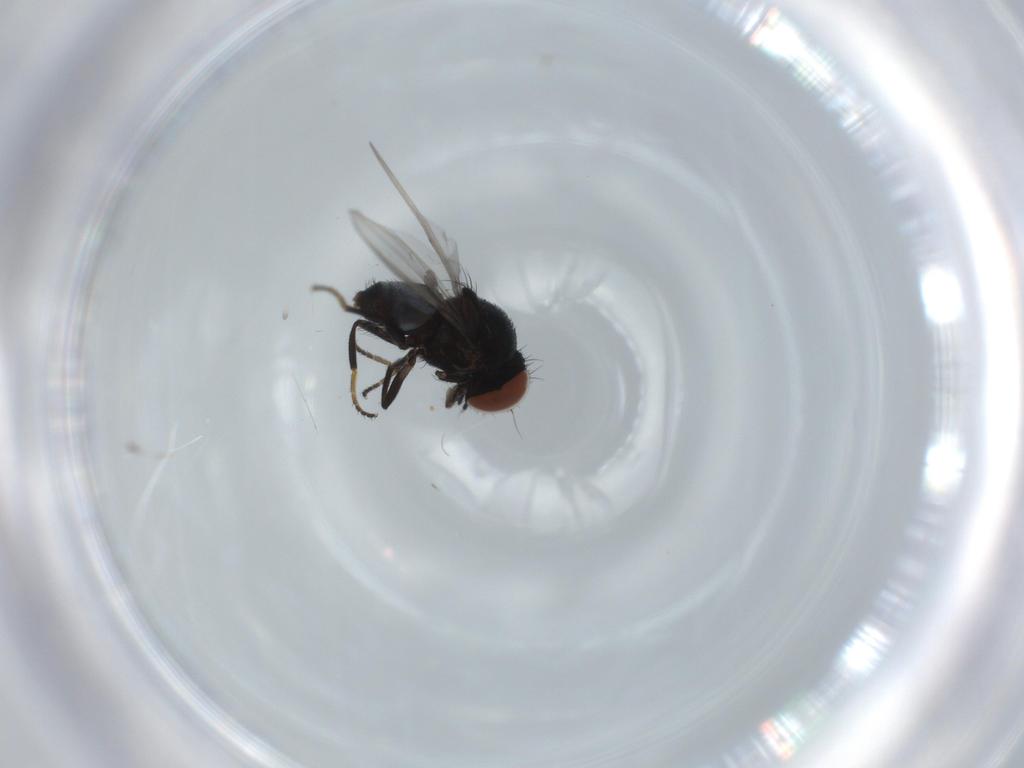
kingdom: Animalia
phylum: Arthropoda
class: Insecta
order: Diptera
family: Milichiidae
